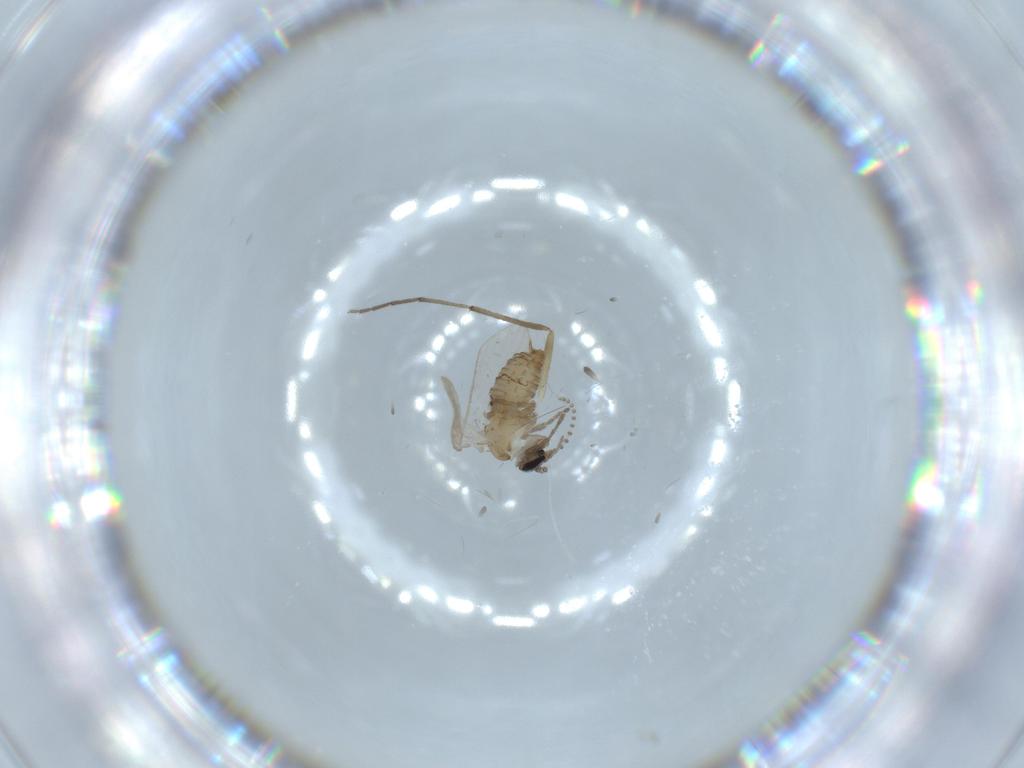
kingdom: Animalia
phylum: Arthropoda
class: Insecta
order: Diptera
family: Psychodidae
